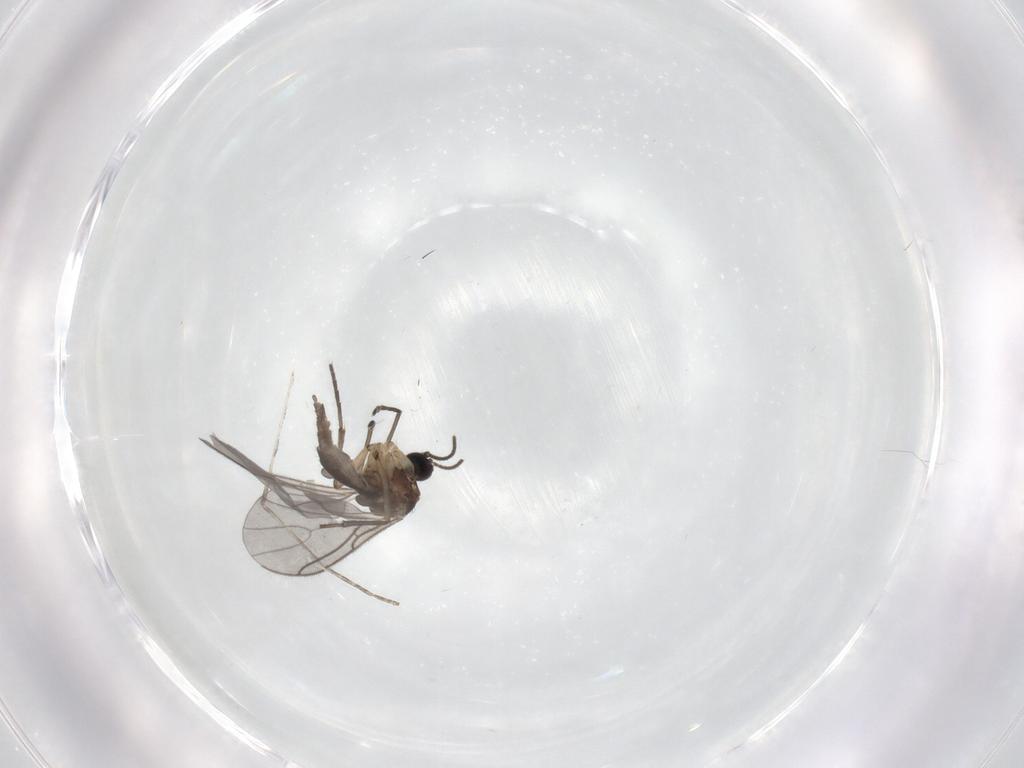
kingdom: Animalia
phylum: Arthropoda
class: Insecta
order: Diptera
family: Sciaridae
